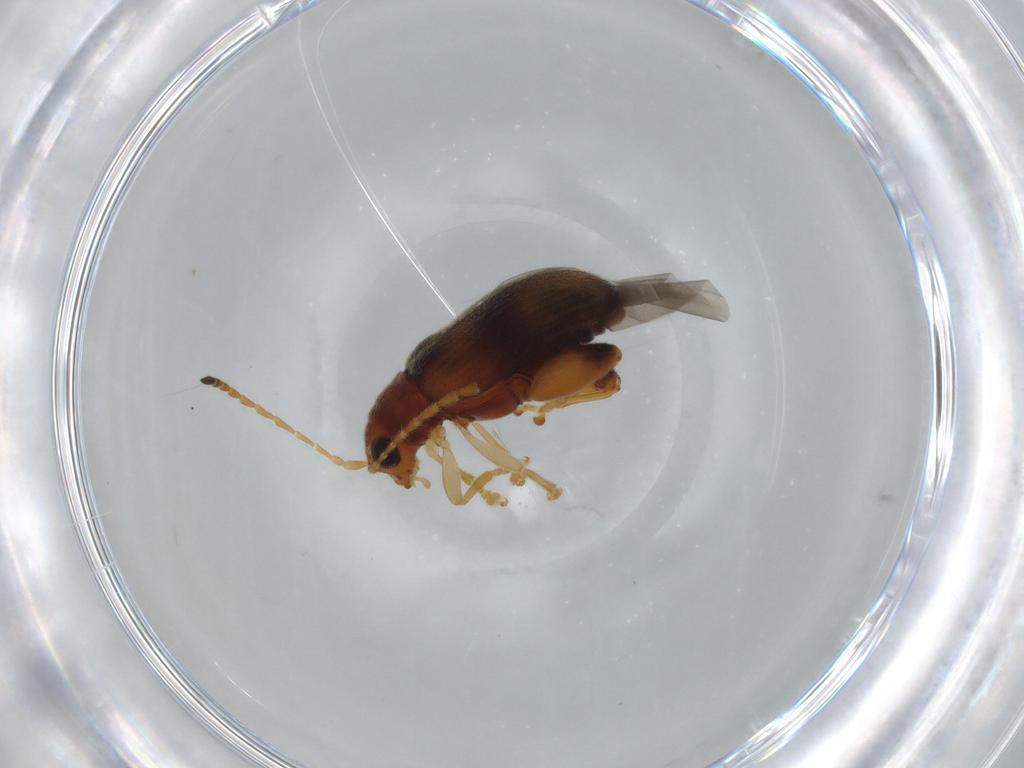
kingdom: Animalia
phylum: Arthropoda
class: Insecta
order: Coleoptera
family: Chrysomelidae
